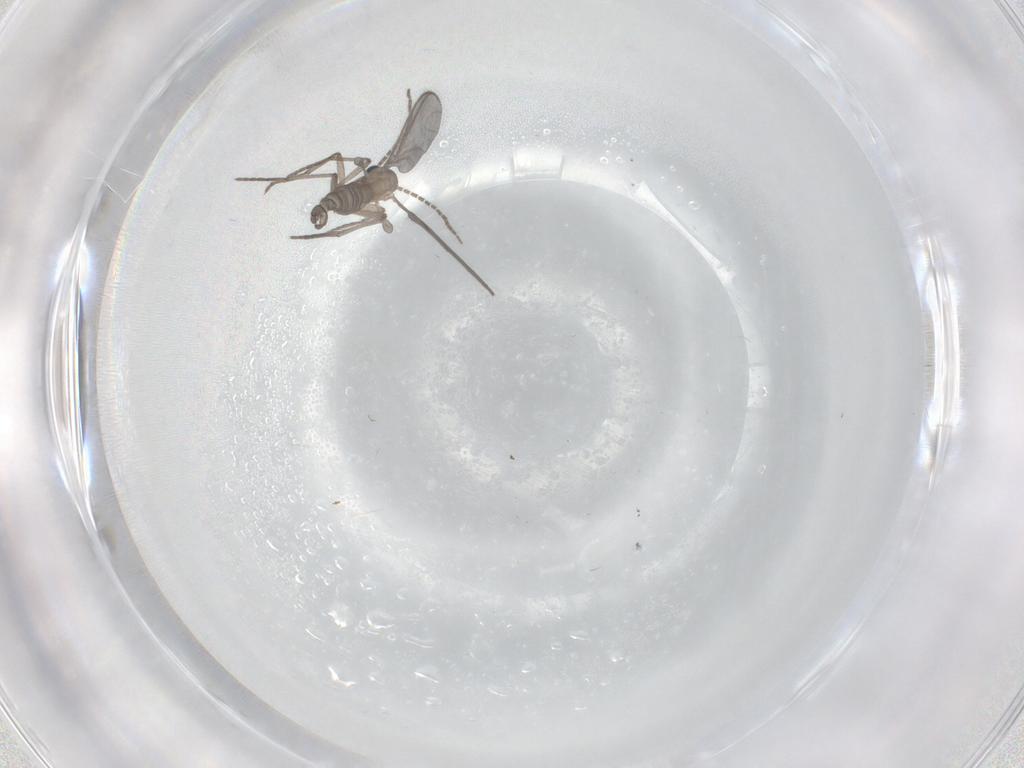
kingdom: Animalia
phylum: Arthropoda
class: Insecta
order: Diptera
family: Sciaridae
